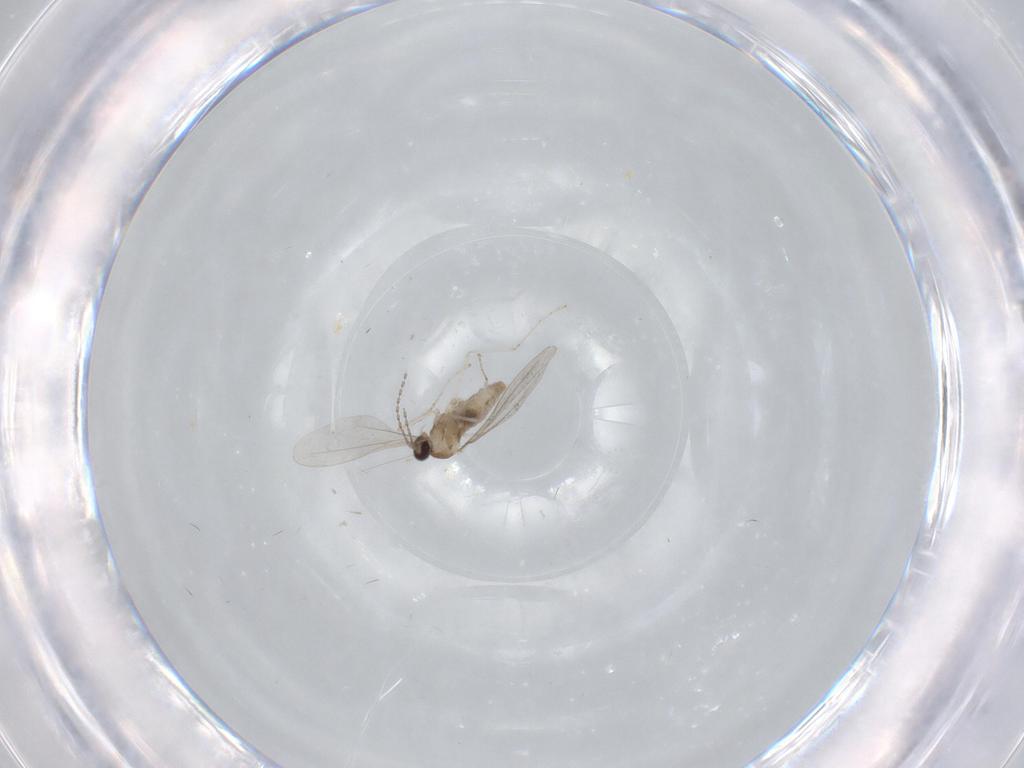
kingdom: Animalia
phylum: Arthropoda
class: Insecta
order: Diptera
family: Cecidomyiidae
